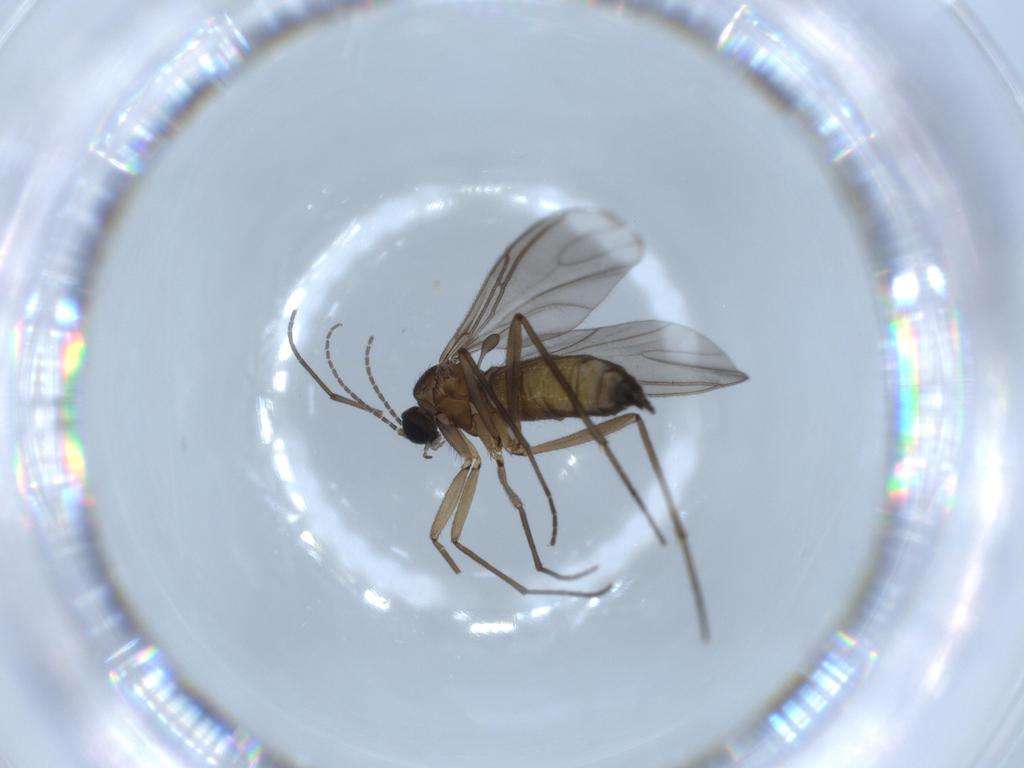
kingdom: Animalia
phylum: Arthropoda
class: Insecta
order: Diptera
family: Sciaridae
